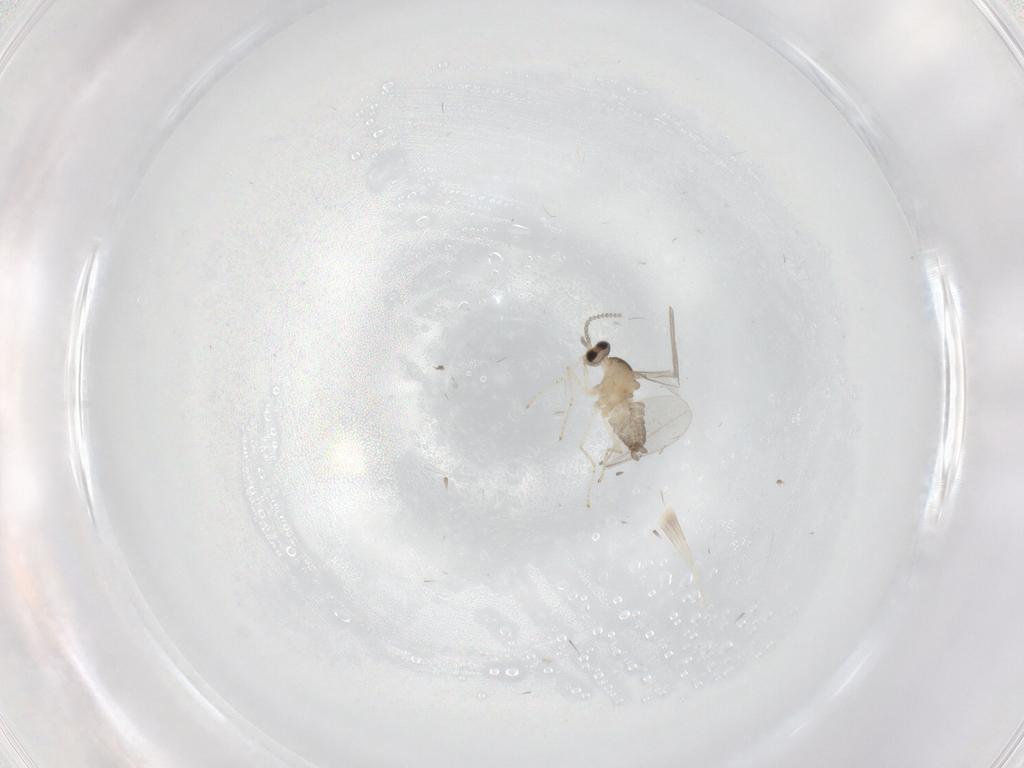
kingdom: Animalia
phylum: Arthropoda
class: Insecta
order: Diptera
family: Cecidomyiidae
